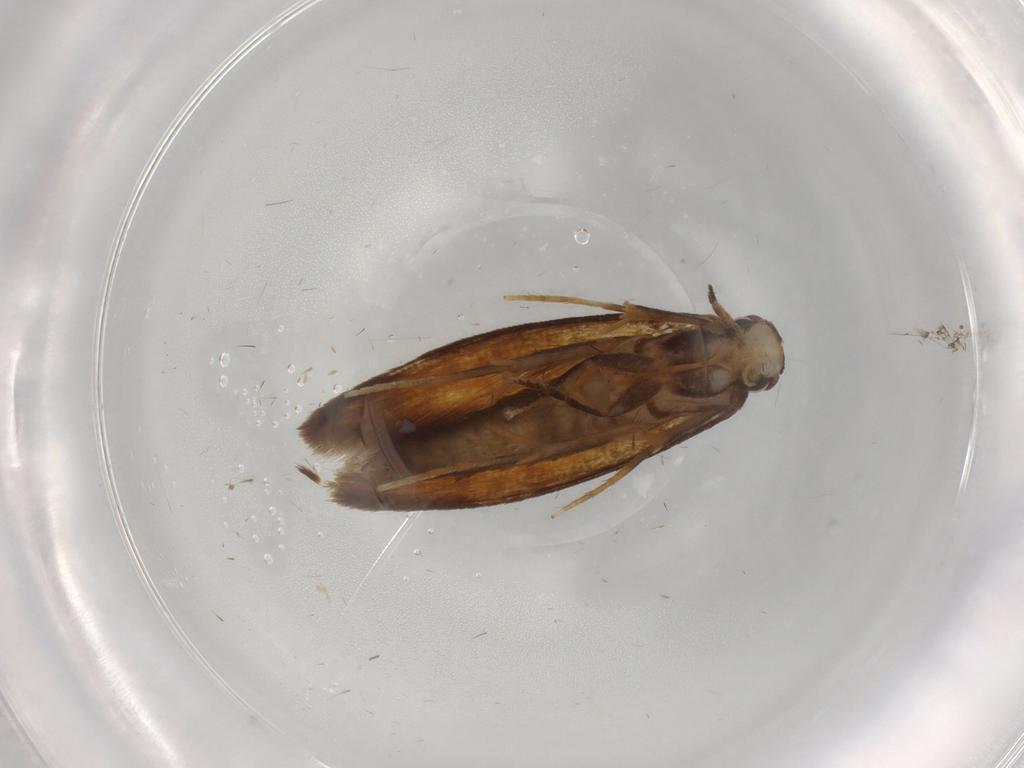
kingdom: Animalia
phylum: Arthropoda
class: Insecta
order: Lepidoptera
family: Tineidae
